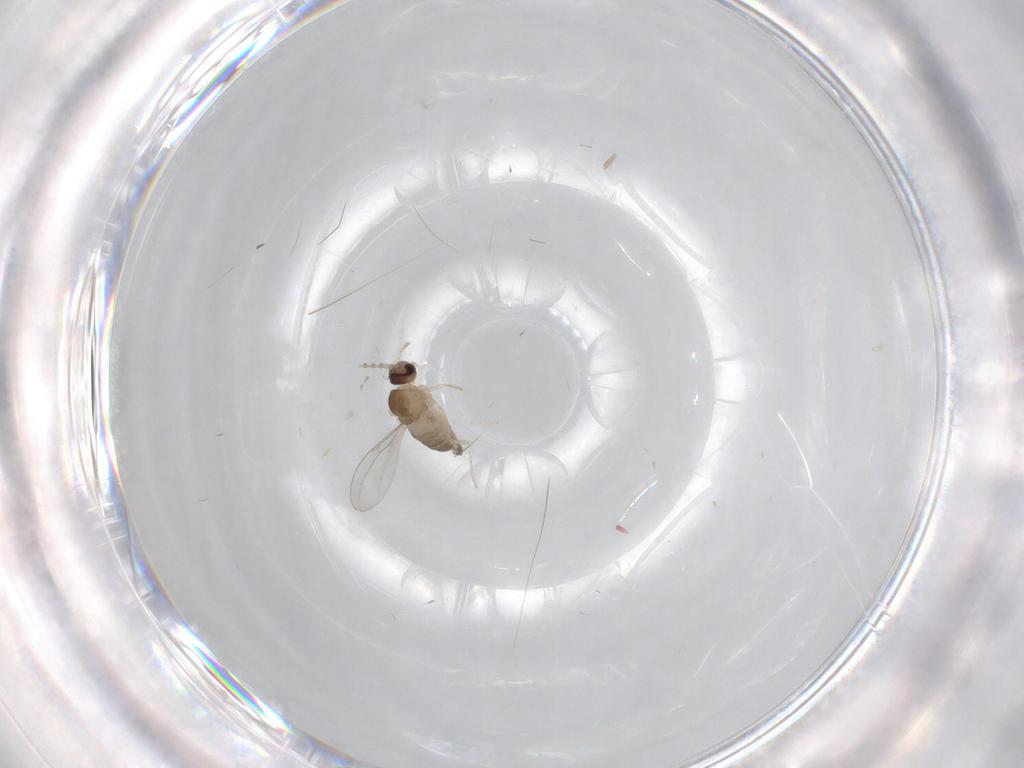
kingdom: Animalia
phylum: Arthropoda
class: Insecta
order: Diptera
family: Cecidomyiidae
